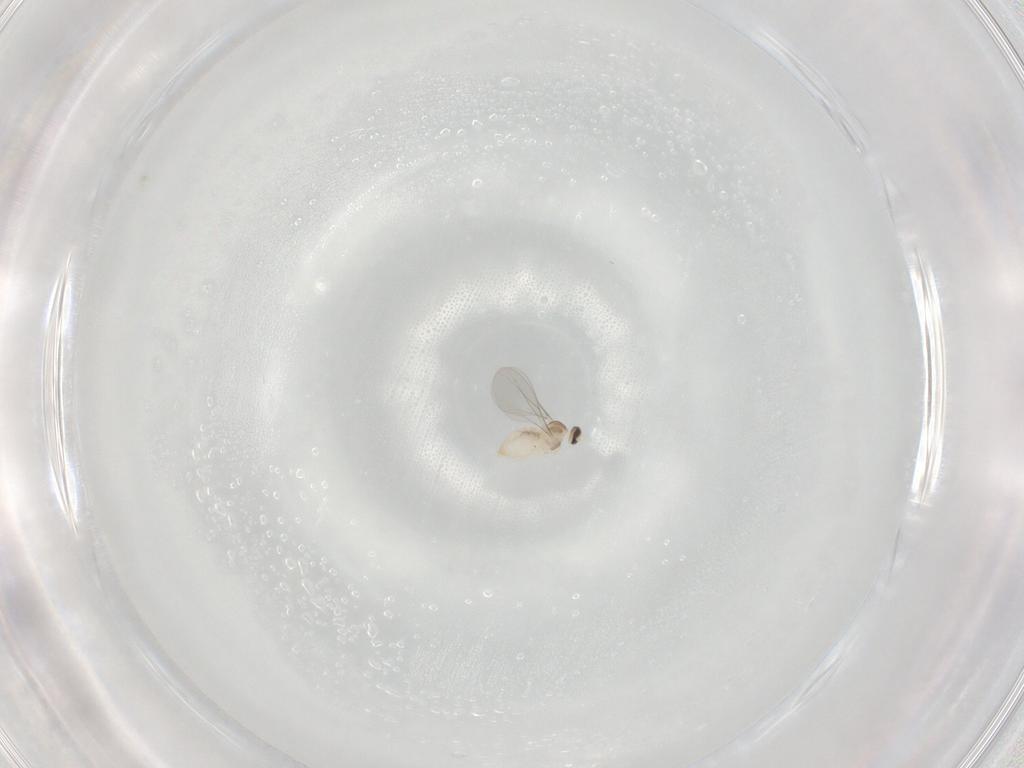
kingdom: Animalia
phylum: Arthropoda
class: Insecta
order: Diptera
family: Cecidomyiidae
